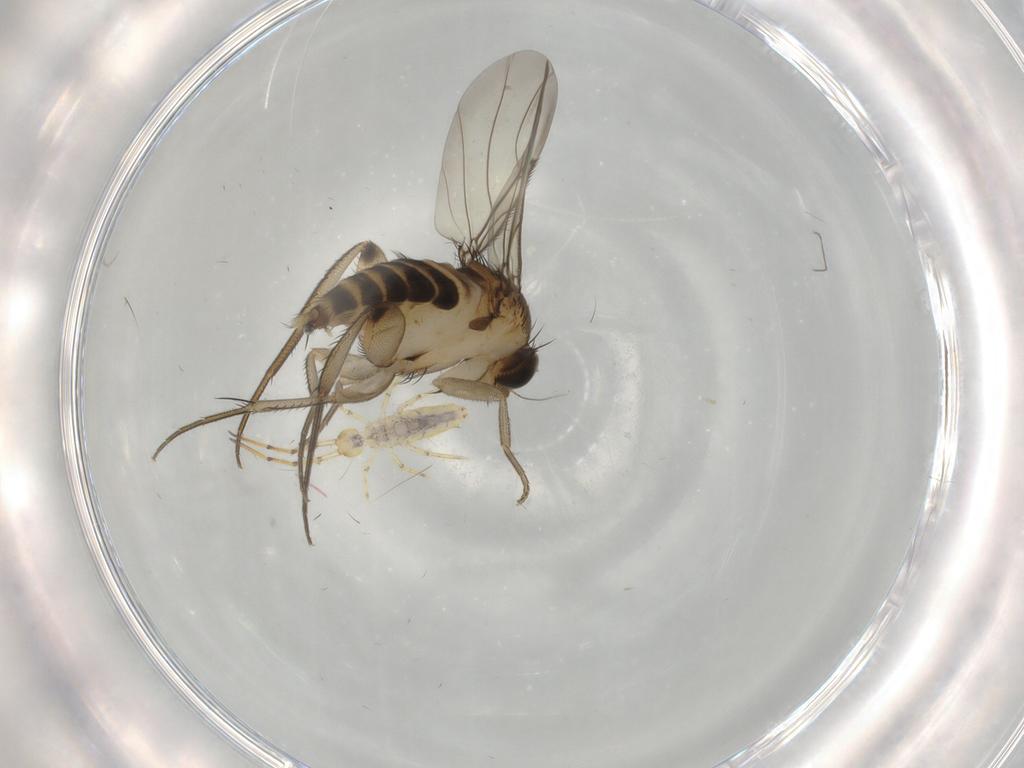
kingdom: Animalia
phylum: Arthropoda
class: Insecta
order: Diptera
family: Phoridae
